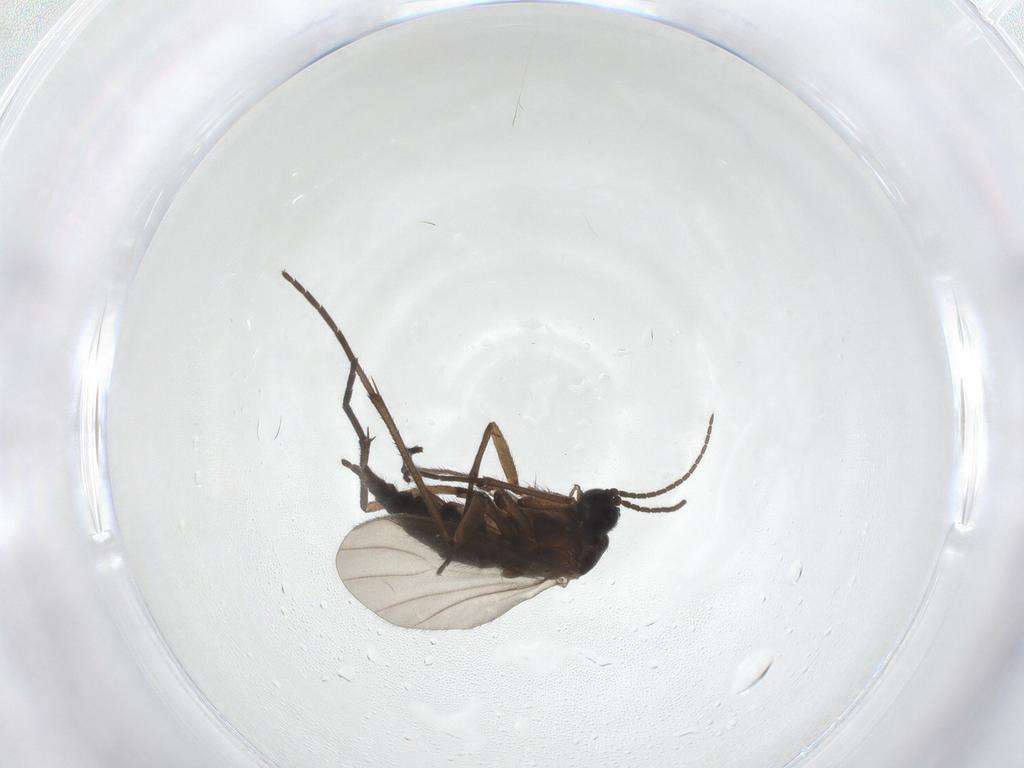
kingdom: Animalia
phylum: Arthropoda
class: Insecta
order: Diptera
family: Sciaridae
